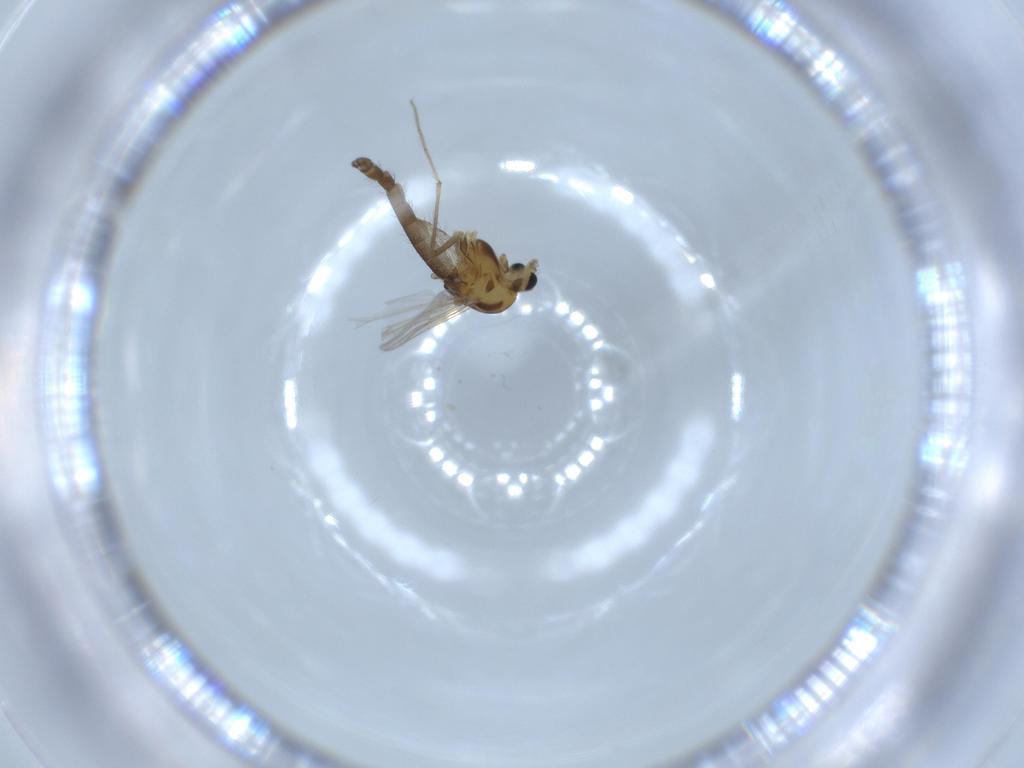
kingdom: Animalia
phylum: Arthropoda
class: Insecta
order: Diptera
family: Chironomidae
